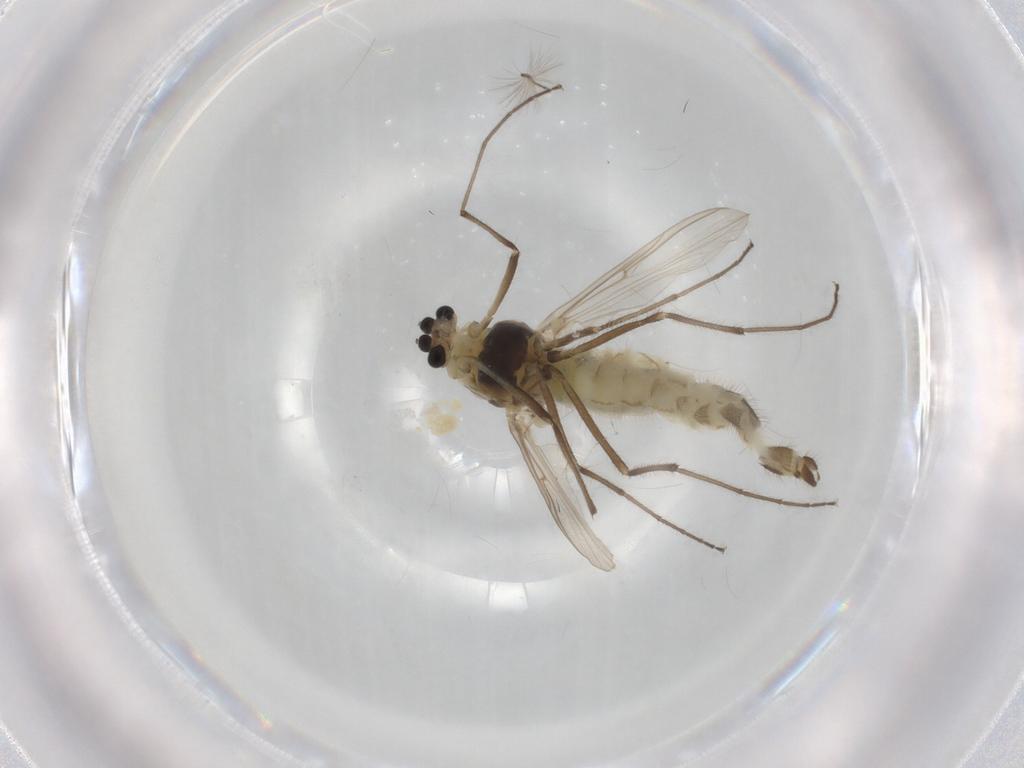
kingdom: Animalia
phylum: Arthropoda
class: Insecta
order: Diptera
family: Chironomidae
